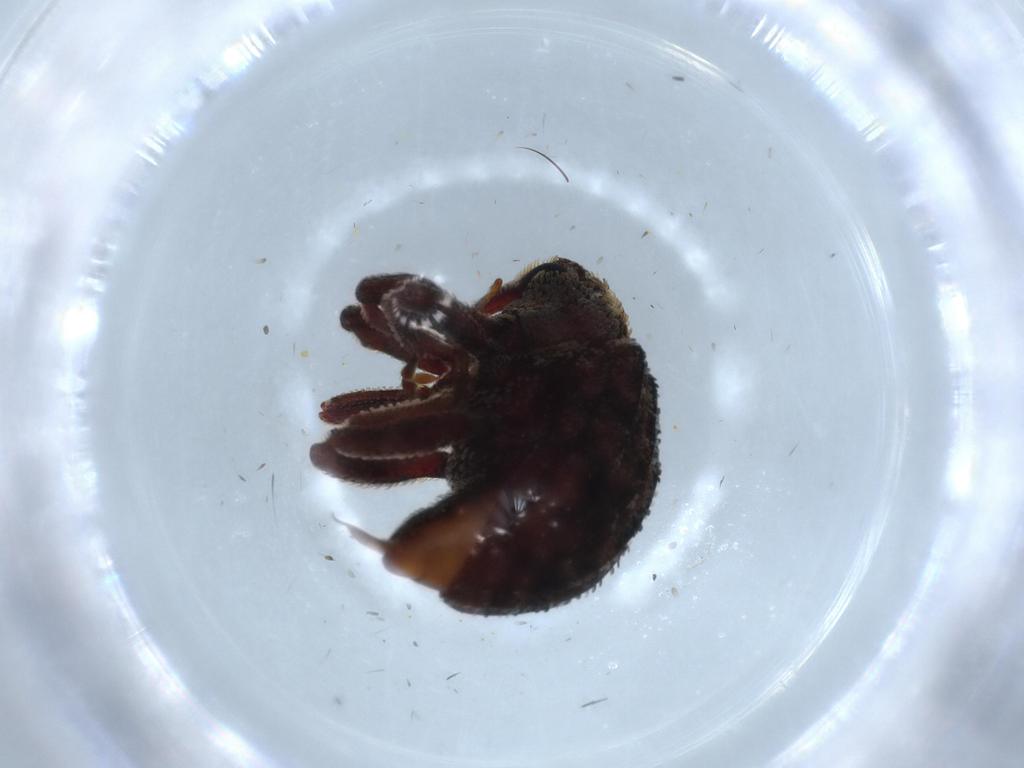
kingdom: Animalia
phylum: Arthropoda
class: Insecta
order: Coleoptera
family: Curculionidae
